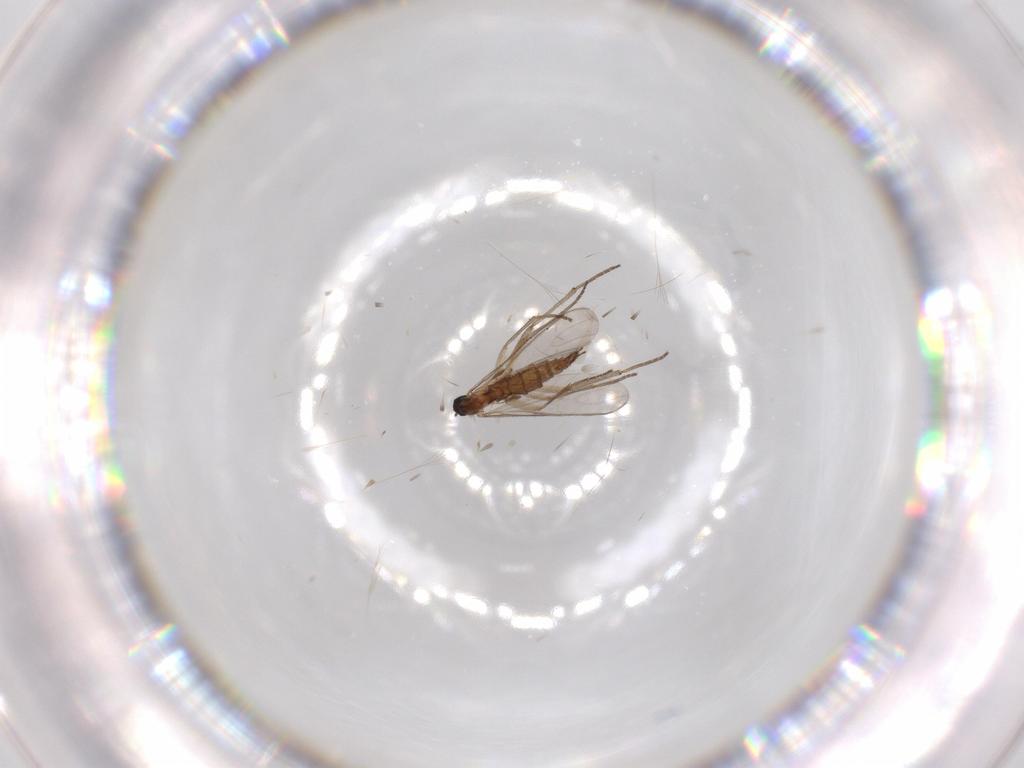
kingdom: Animalia
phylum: Arthropoda
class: Insecta
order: Diptera
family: Sciaridae
